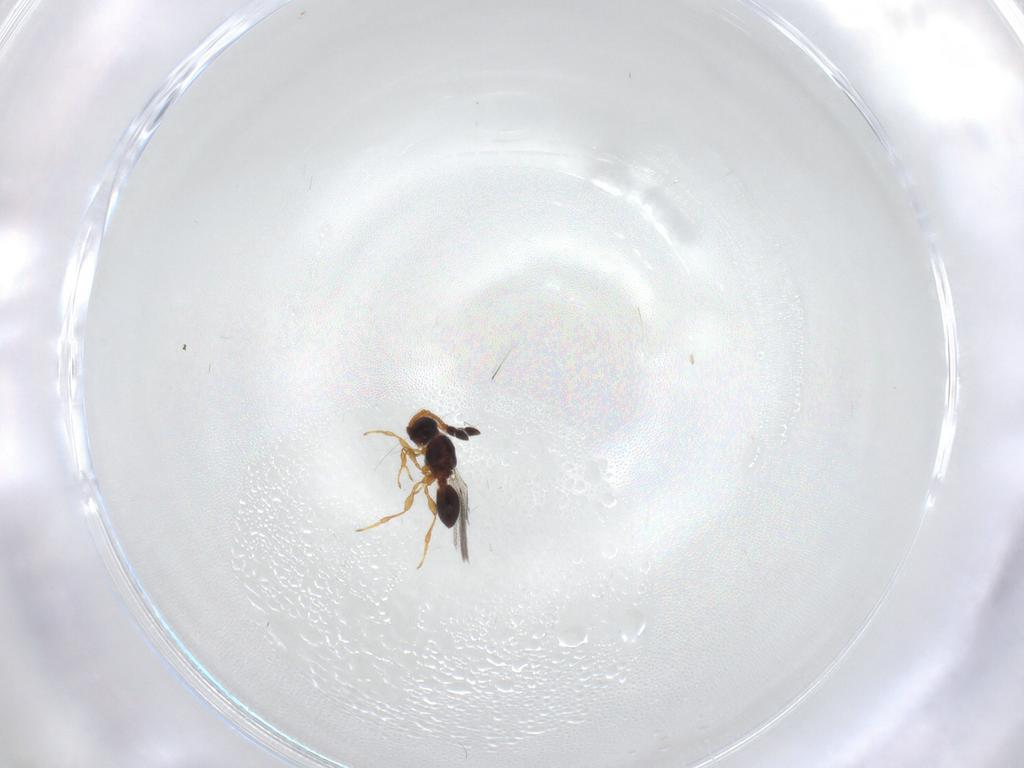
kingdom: Animalia
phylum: Arthropoda
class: Insecta
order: Hymenoptera
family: Diapriidae
